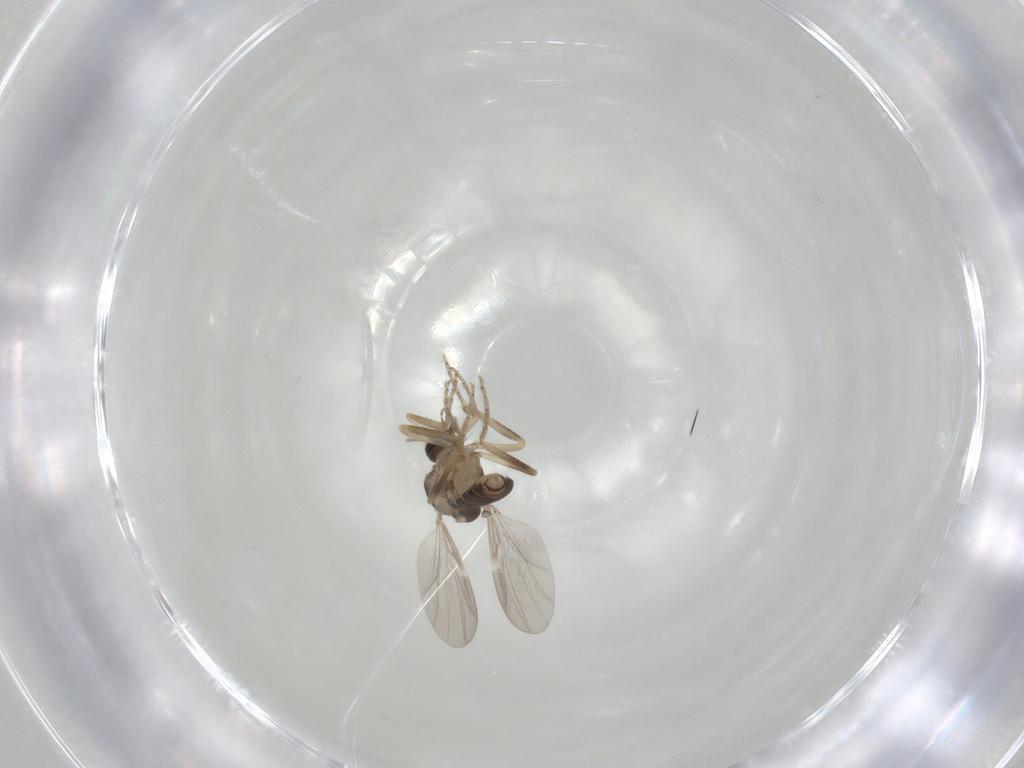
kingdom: Animalia
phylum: Arthropoda
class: Insecta
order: Diptera
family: Ceratopogonidae
